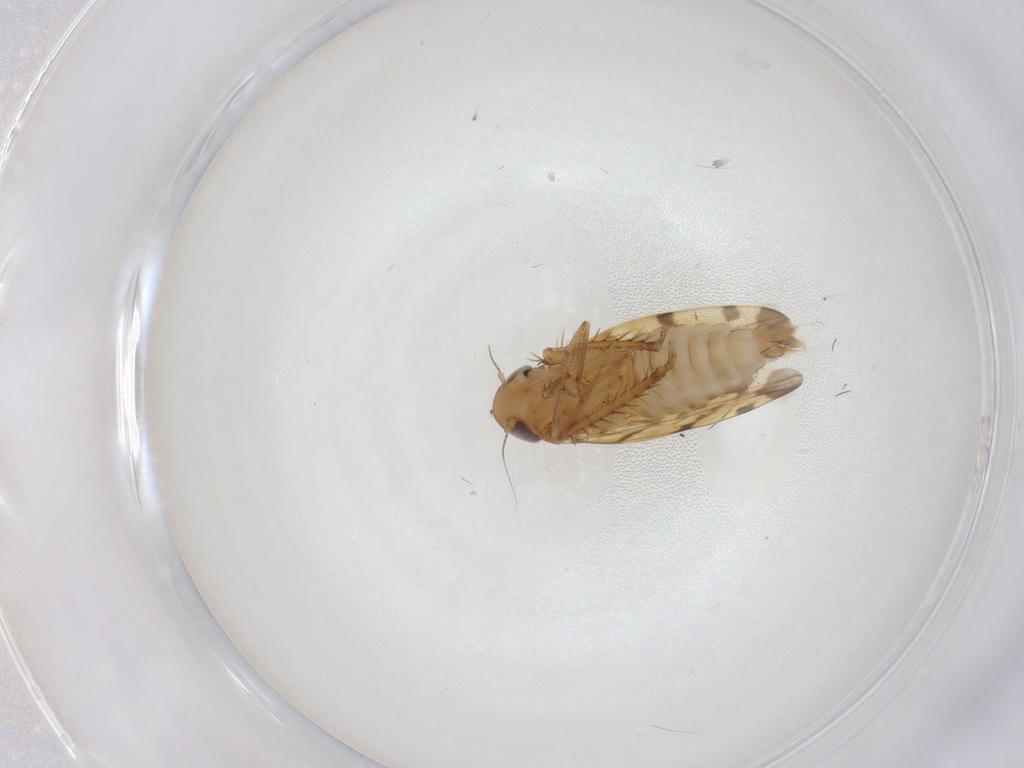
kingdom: Animalia
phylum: Arthropoda
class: Insecta
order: Hemiptera
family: Cicadellidae
